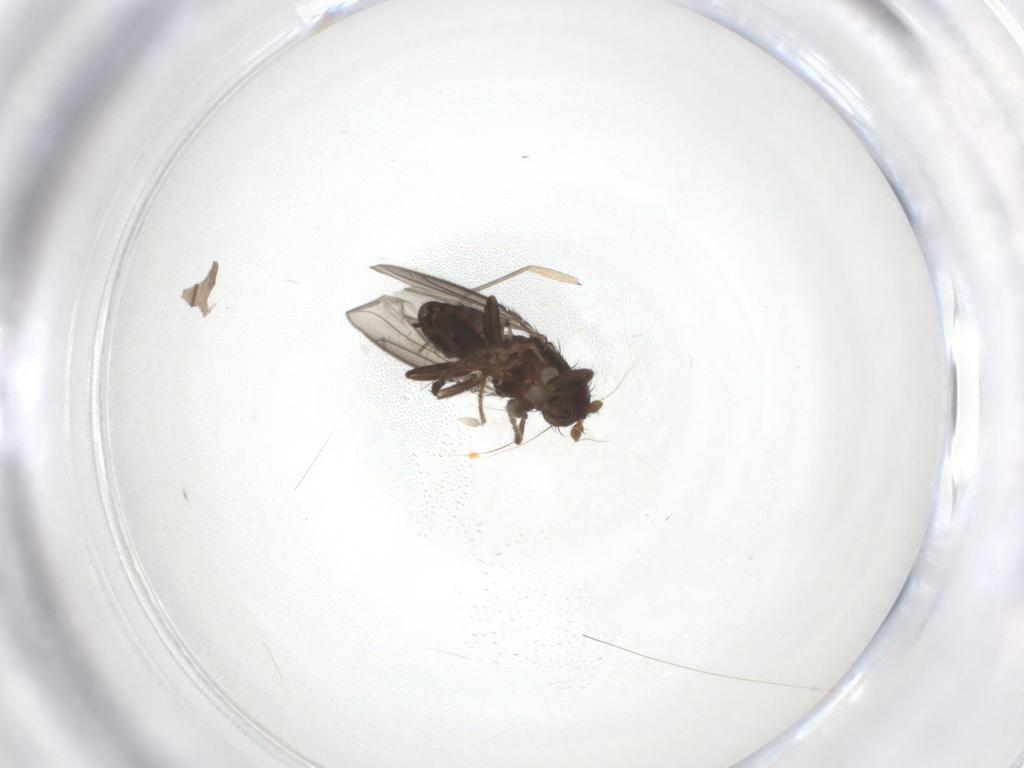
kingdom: Animalia
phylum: Arthropoda
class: Insecta
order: Diptera
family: Sphaeroceridae
